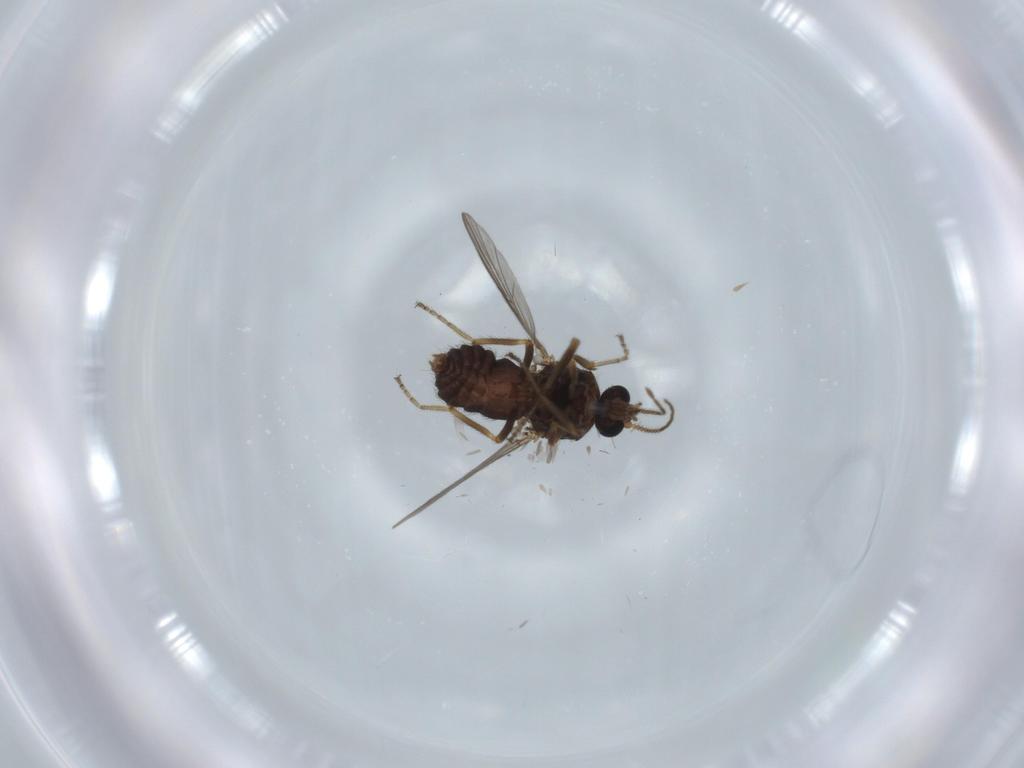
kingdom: Animalia
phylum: Arthropoda
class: Insecta
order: Diptera
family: Ceratopogonidae
